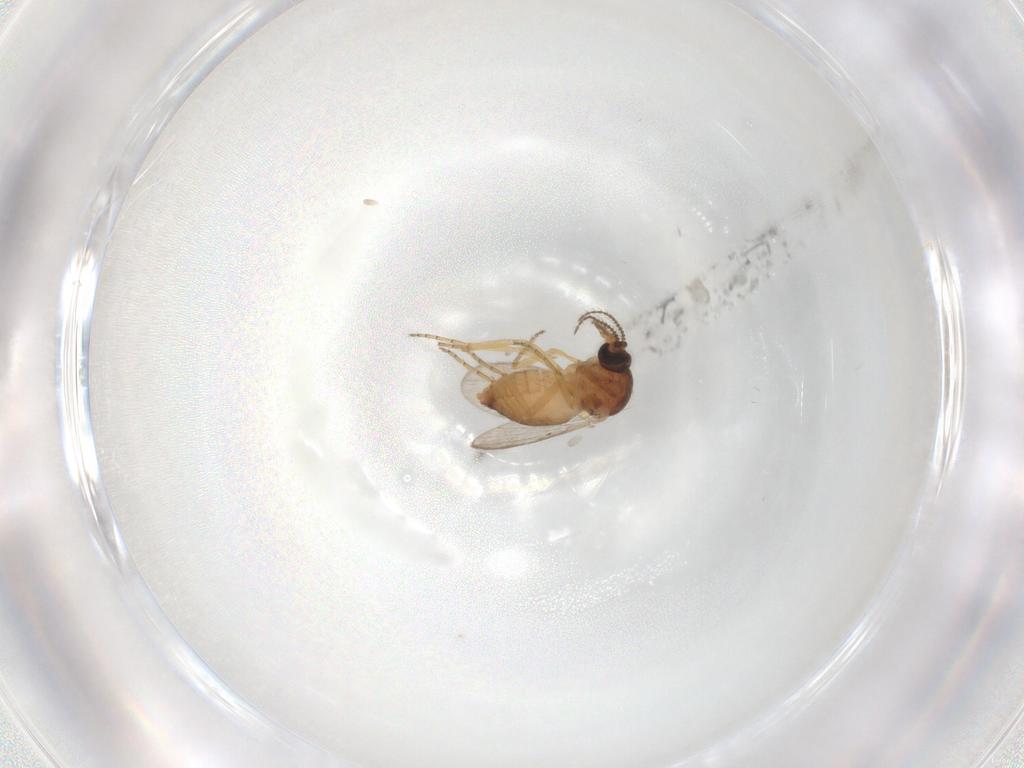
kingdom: Animalia
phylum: Arthropoda
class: Insecta
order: Diptera
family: Ceratopogonidae
